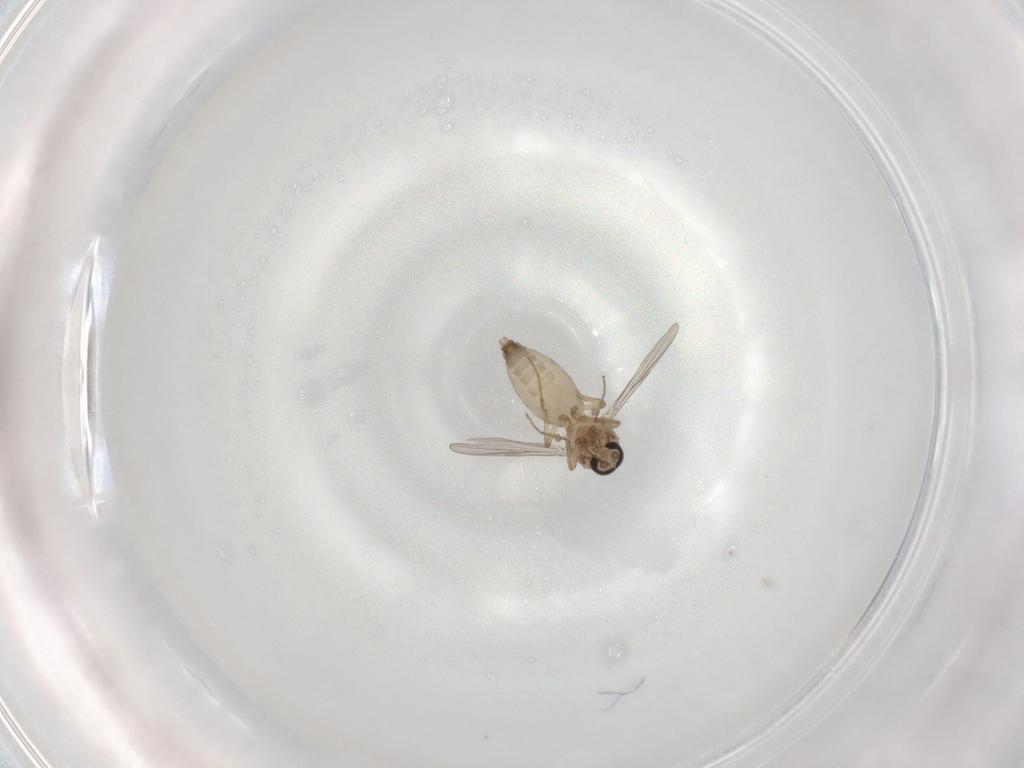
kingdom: Animalia
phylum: Arthropoda
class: Insecta
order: Diptera
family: Ceratopogonidae
